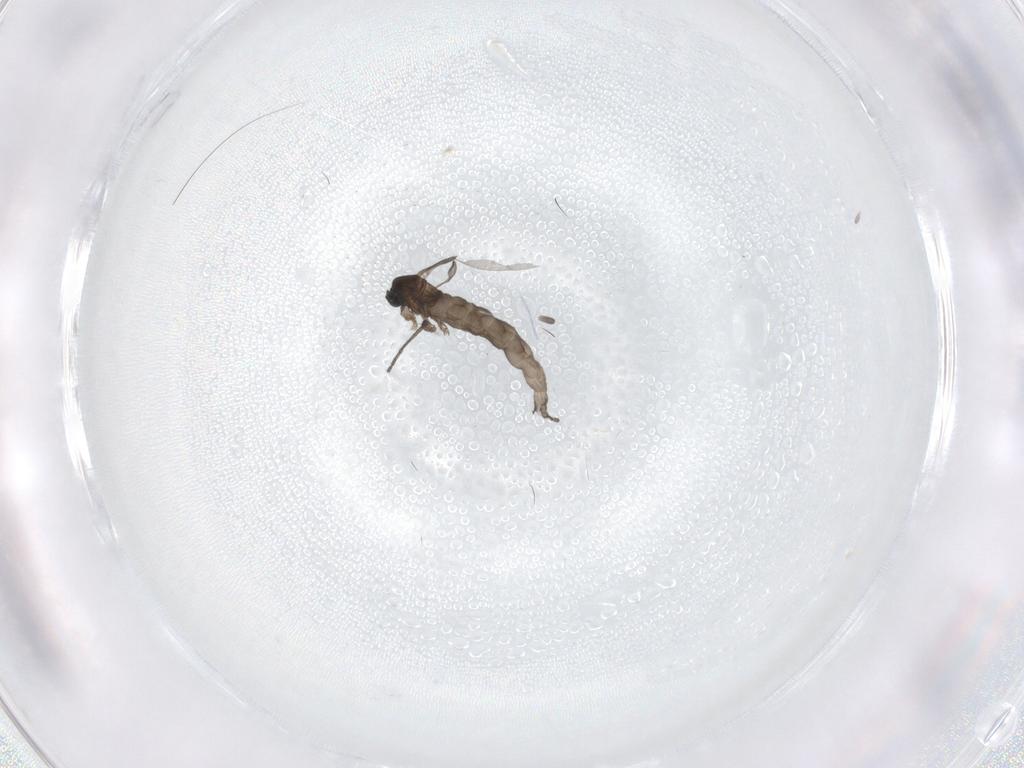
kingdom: Animalia
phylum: Arthropoda
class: Insecta
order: Diptera
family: Sciaridae
